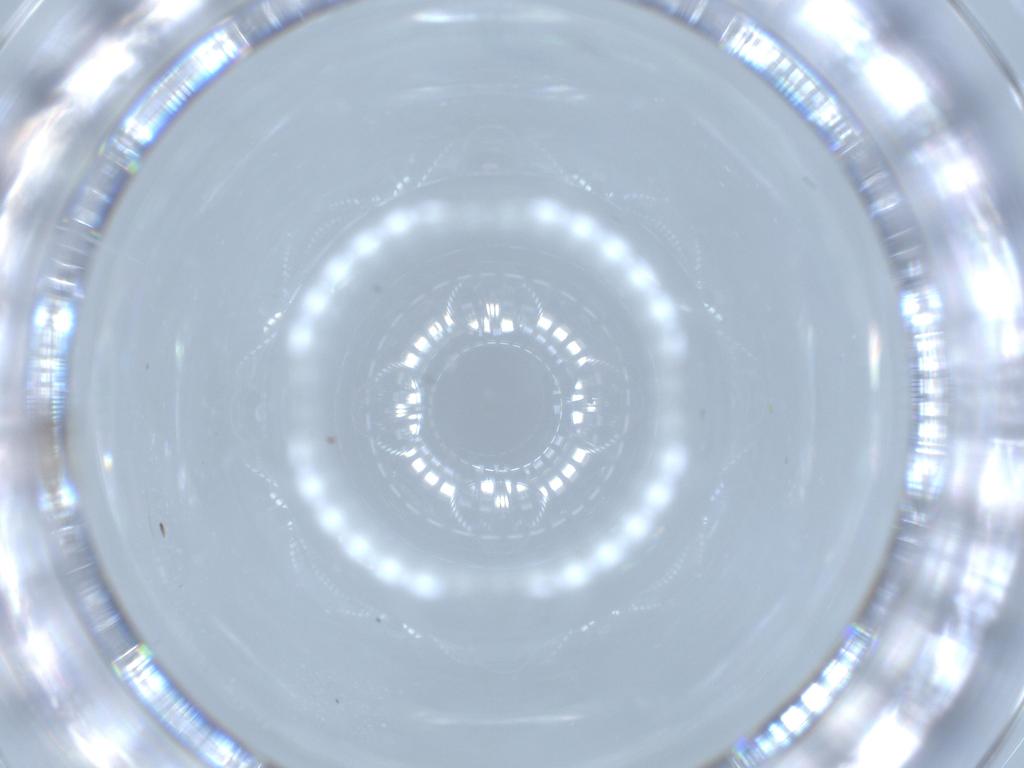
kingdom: Animalia
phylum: Arthropoda
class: Insecta
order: Diptera
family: Phoridae
